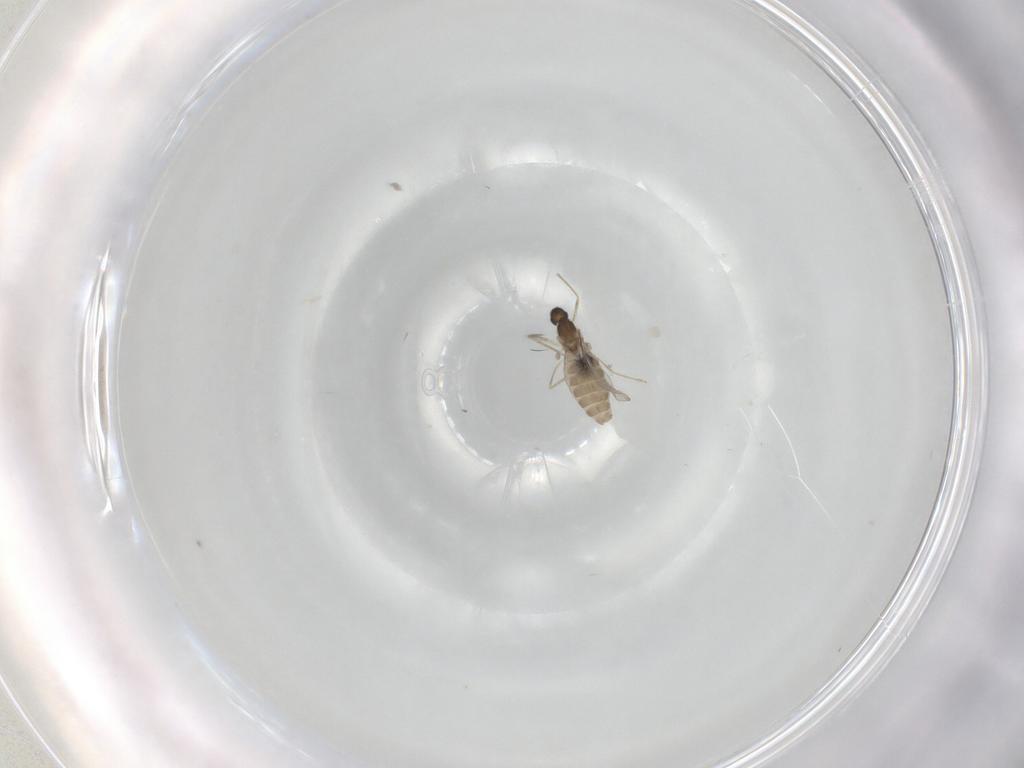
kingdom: Animalia
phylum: Arthropoda
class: Insecta
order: Diptera
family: Phoridae
